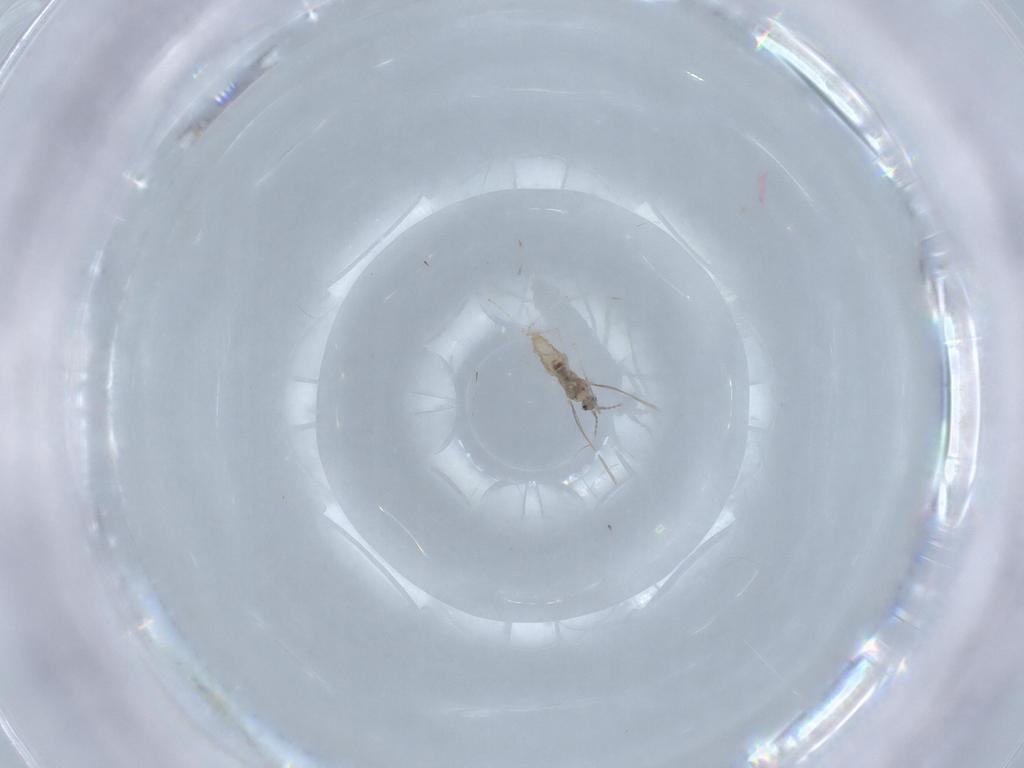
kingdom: Animalia
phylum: Arthropoda
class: Insecta
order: Diptera
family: Cecidomyiidae
